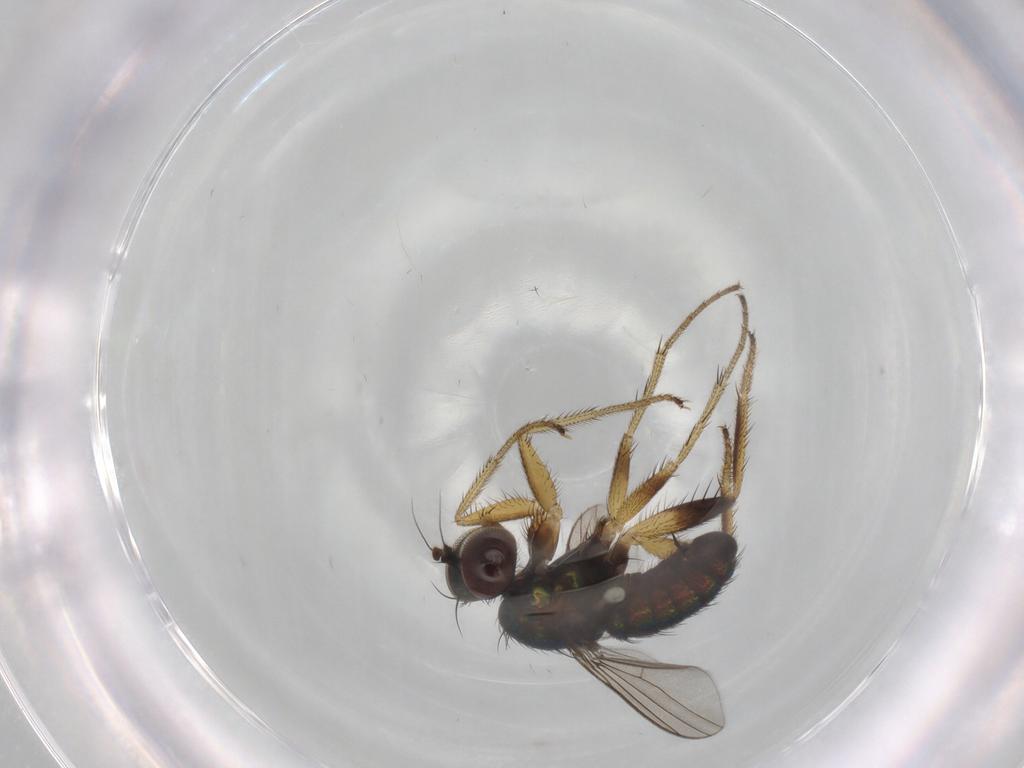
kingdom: Animalia
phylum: Arthropoda
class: Insecta
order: Diptera
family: Dolichopodidae
